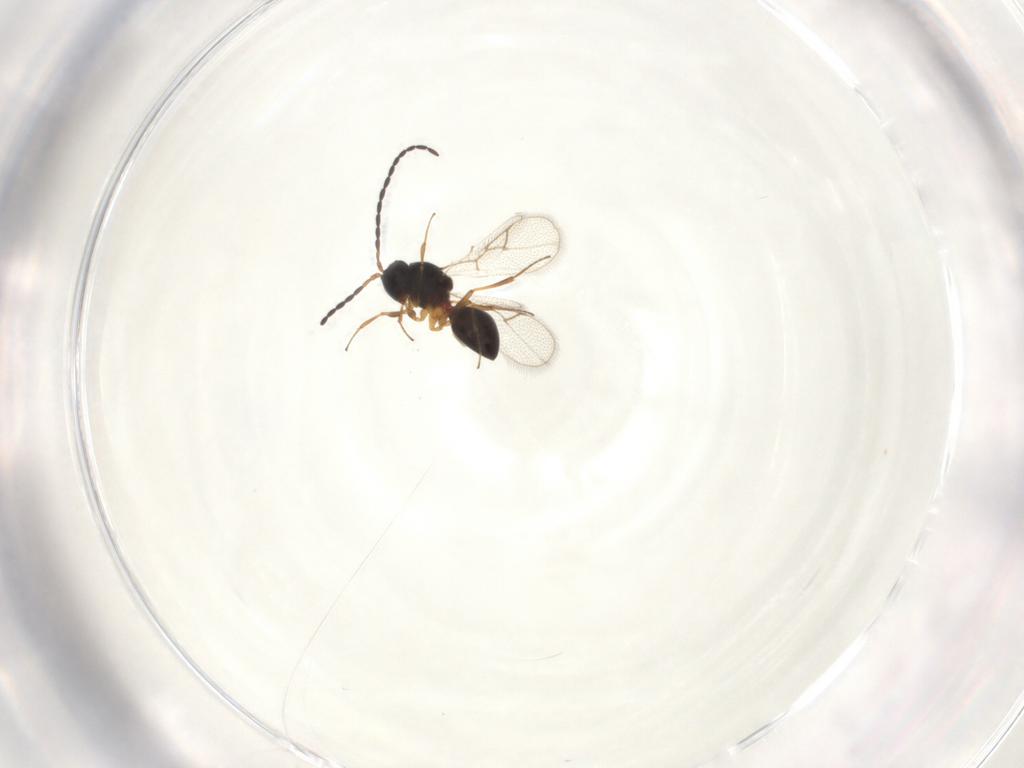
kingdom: Animalia
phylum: Arthropoda
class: Insecta
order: Hymenoptera
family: Figitidae
